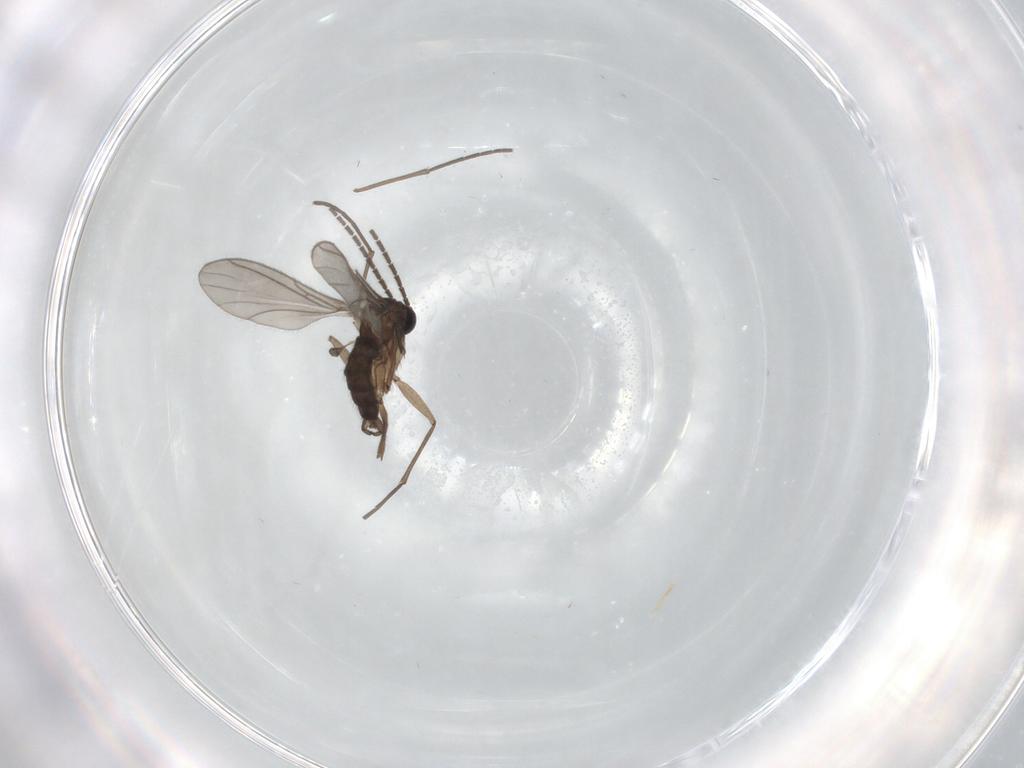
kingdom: Animalia
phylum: Arthropoda
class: Insecta
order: Diptera
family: Sciaridae
